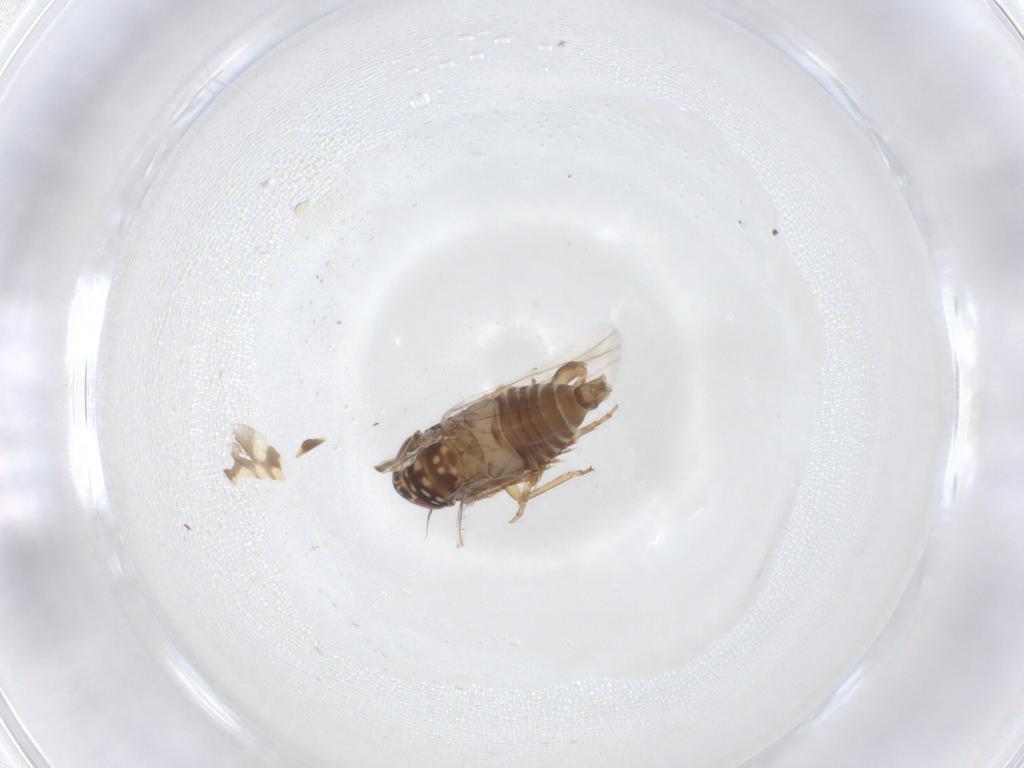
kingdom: Animalia
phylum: Arthropoda
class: Insecta
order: Hemiptera
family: Cicadellidae
